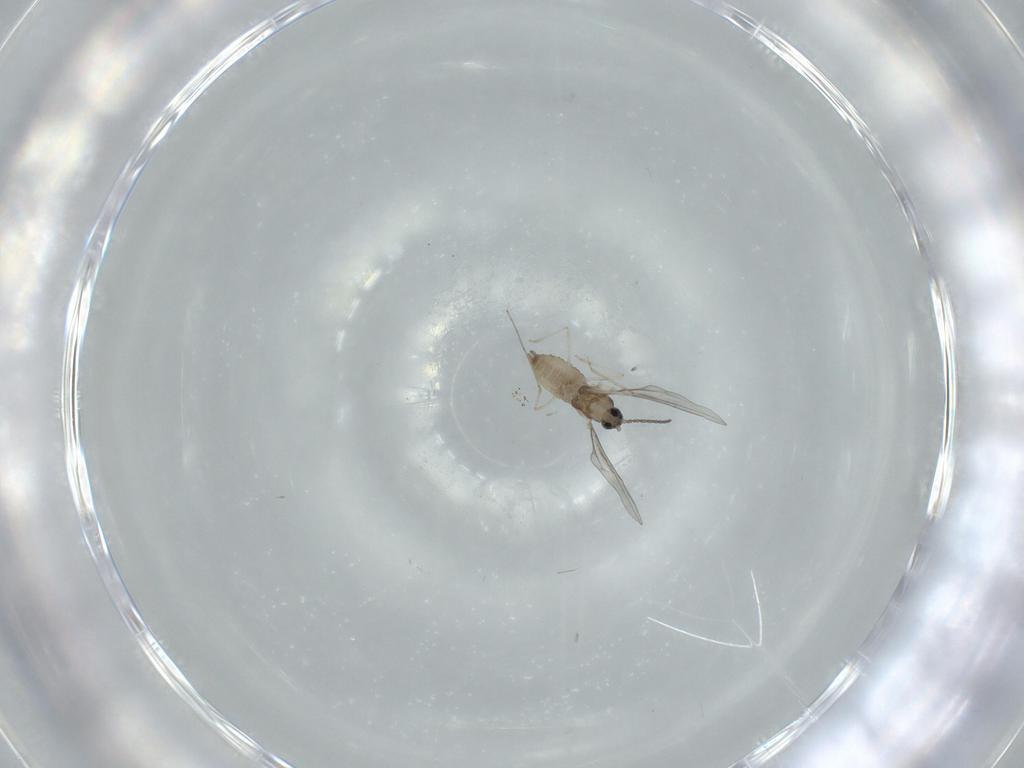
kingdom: Animalia
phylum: Arthropoda
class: Insecta
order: Diptera
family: Cecidomyiidae
